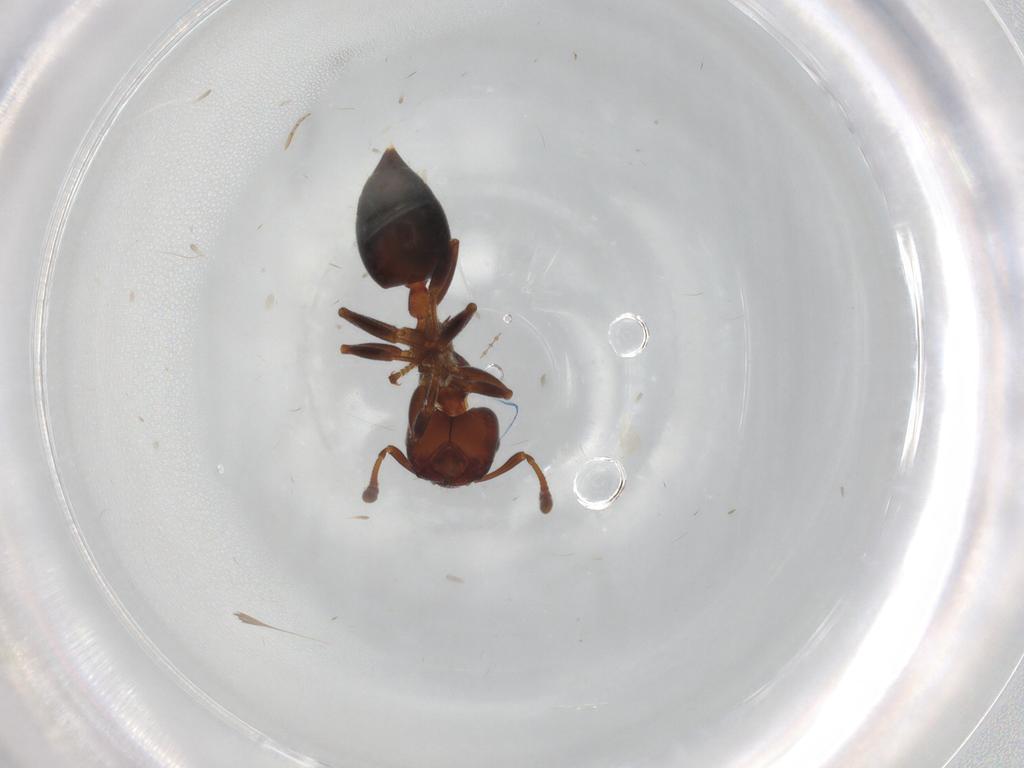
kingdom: Animalia
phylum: Arthropoda
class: Insecta
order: Hymenoptera
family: Formicidae
